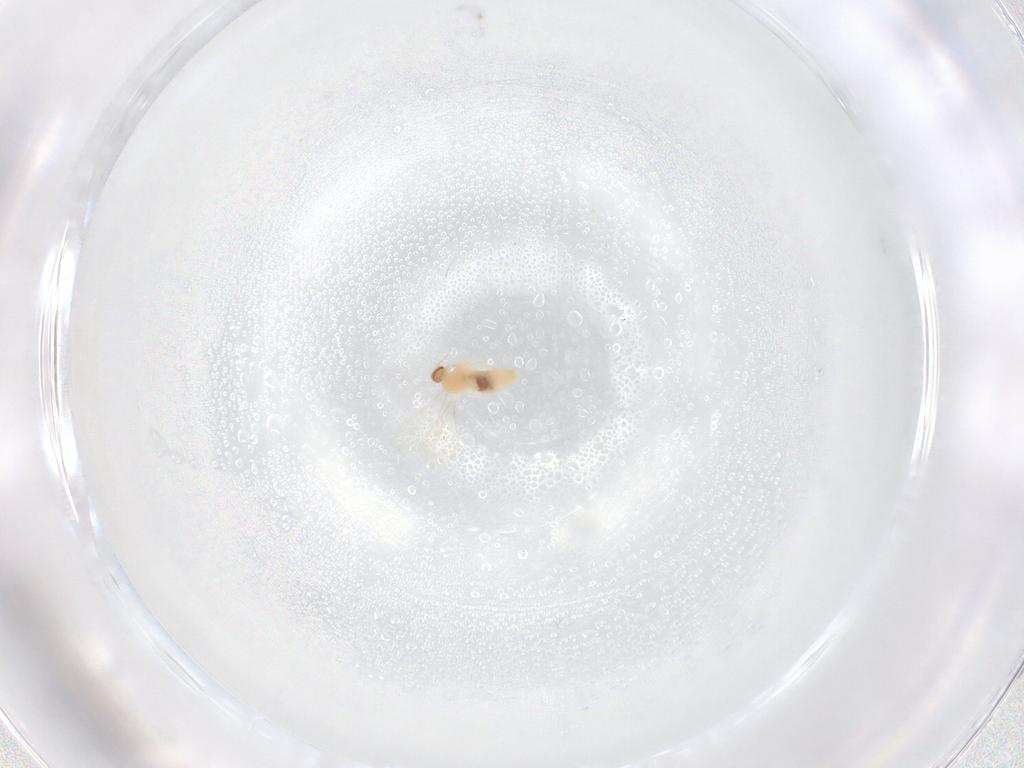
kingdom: Animalia
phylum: Arthropoda
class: Insecta
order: Diptera
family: Cecidomyiidae
